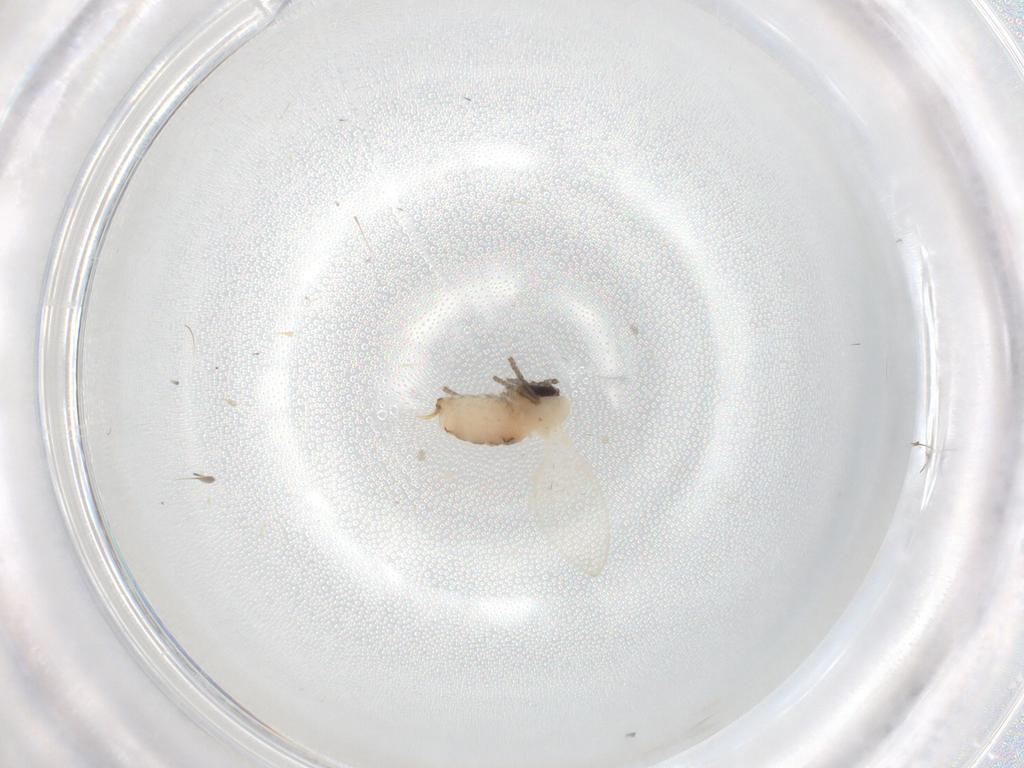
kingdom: Animalia
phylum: Arthropoda
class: Insecta
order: Diptera
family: Psychodidae
